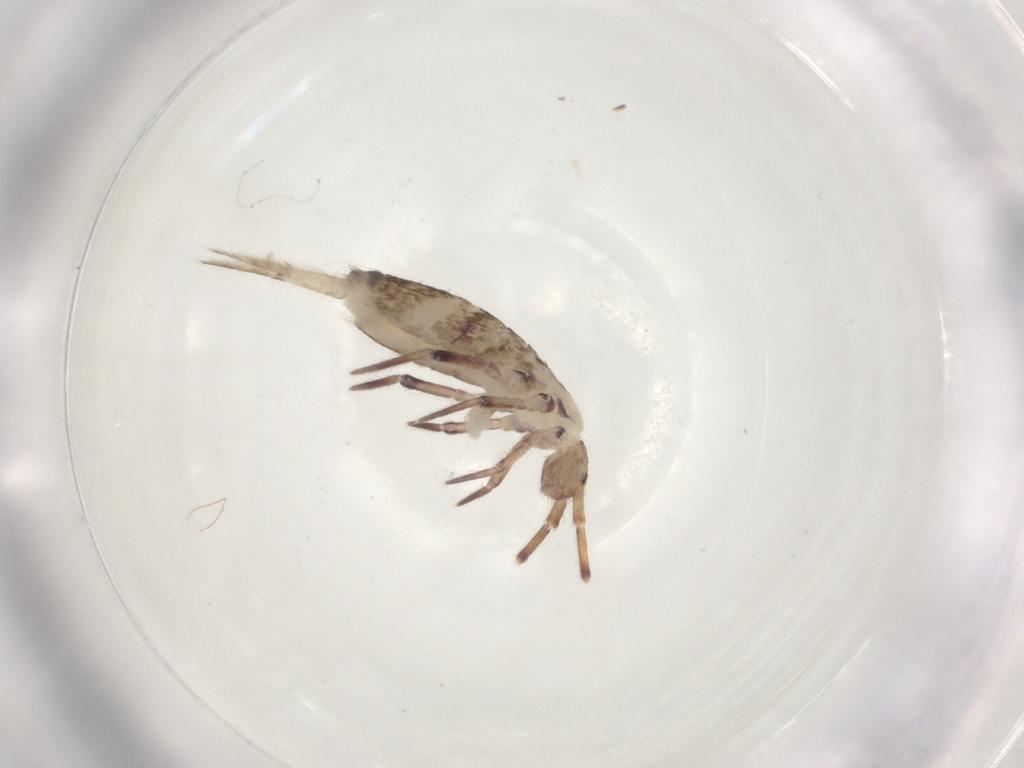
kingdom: Animalia
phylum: Arthropoda
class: Collembola
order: Entomobryomorpha
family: Entomobryidae
